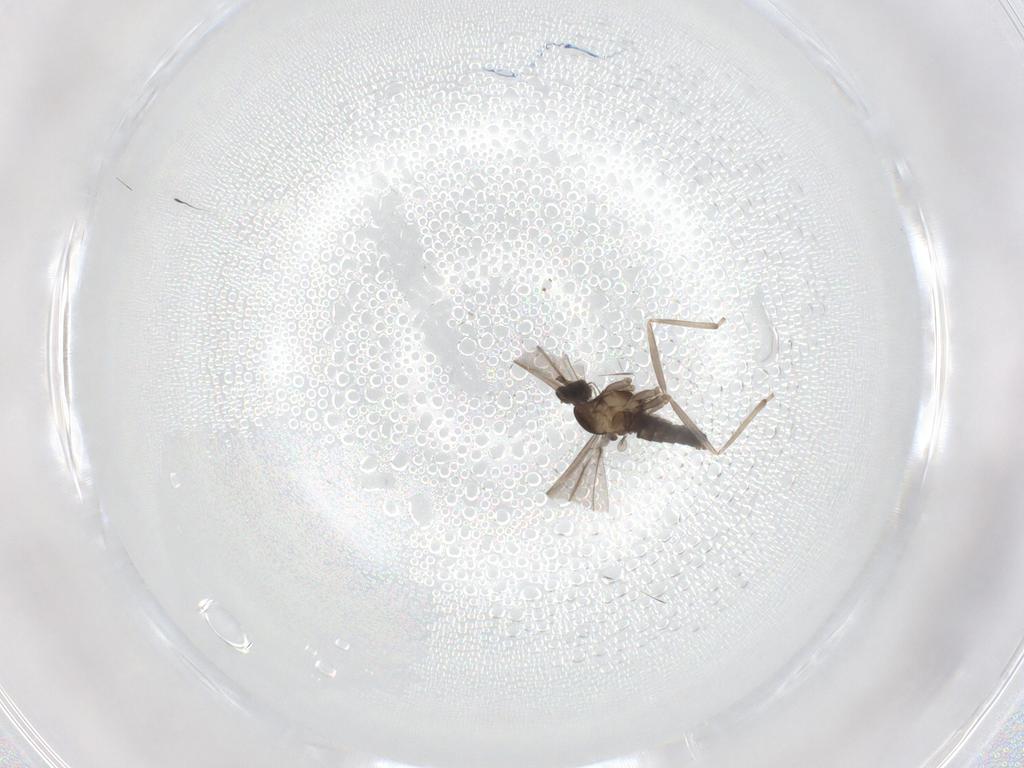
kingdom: Animalia
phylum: Arthropoda
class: Insecta
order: Diptera
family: Cecidomyiidae
